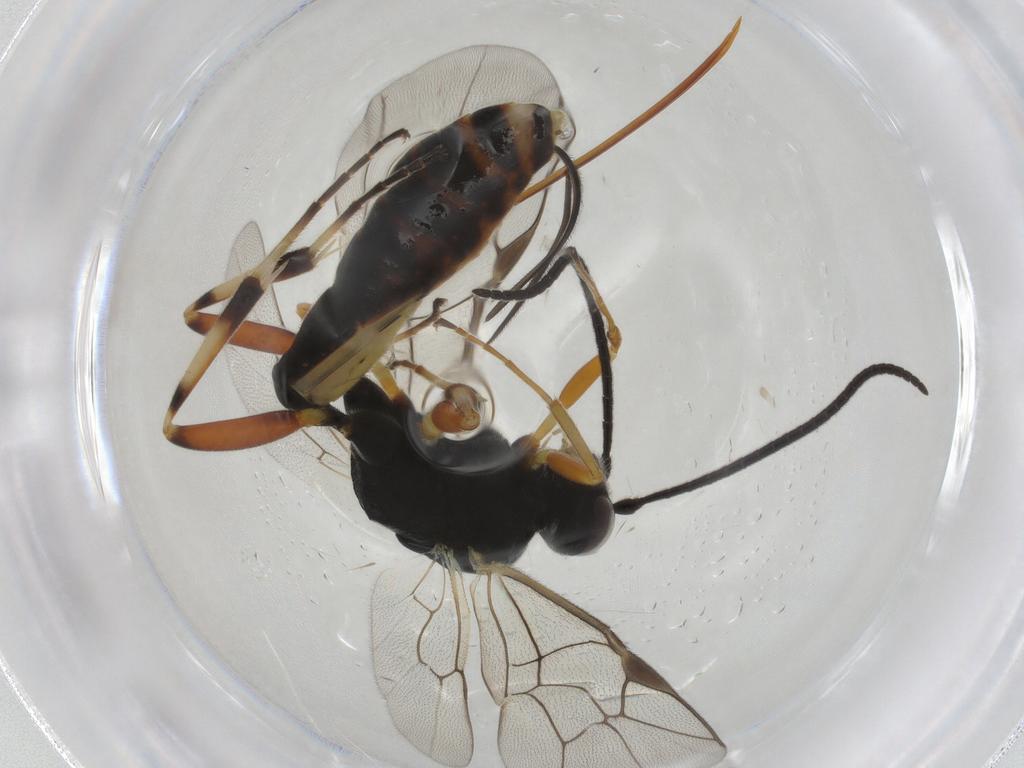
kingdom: Animalia
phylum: Arthropoda
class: Insecta
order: Hymenoptera
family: Ichneumonidae
